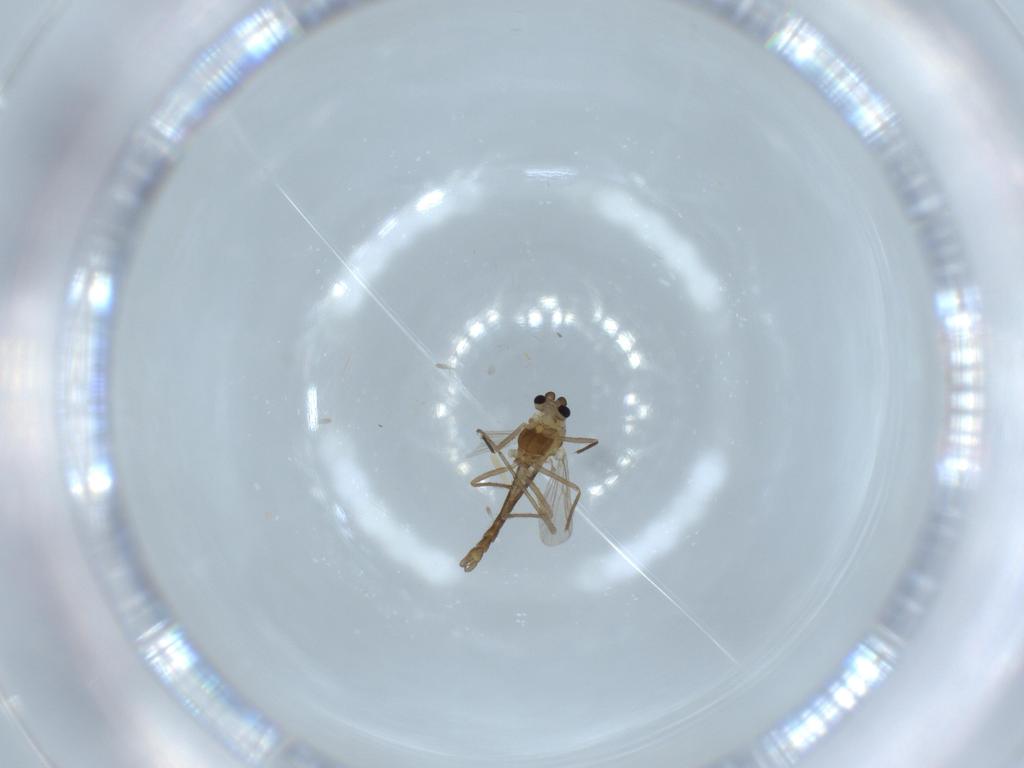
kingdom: Animalia
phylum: Arthropoda
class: Insecta
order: Diptera
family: Chironomidae
